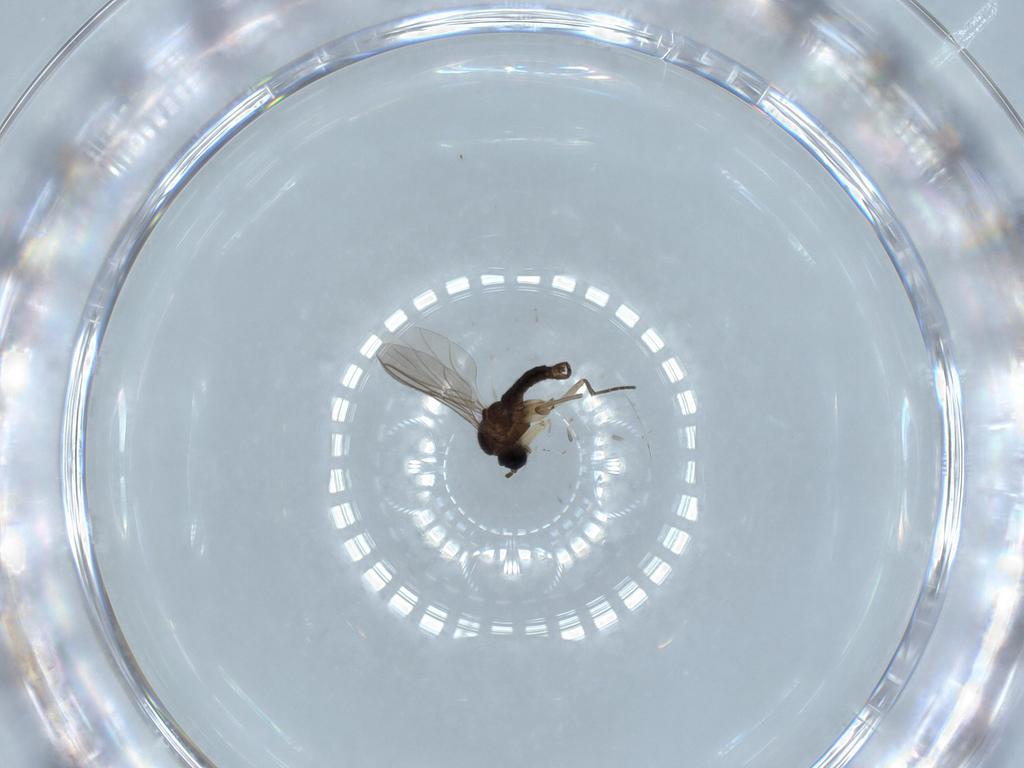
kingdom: Animalia
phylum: Arthropoda
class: Insecta
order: Diptera
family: Sciaridae
